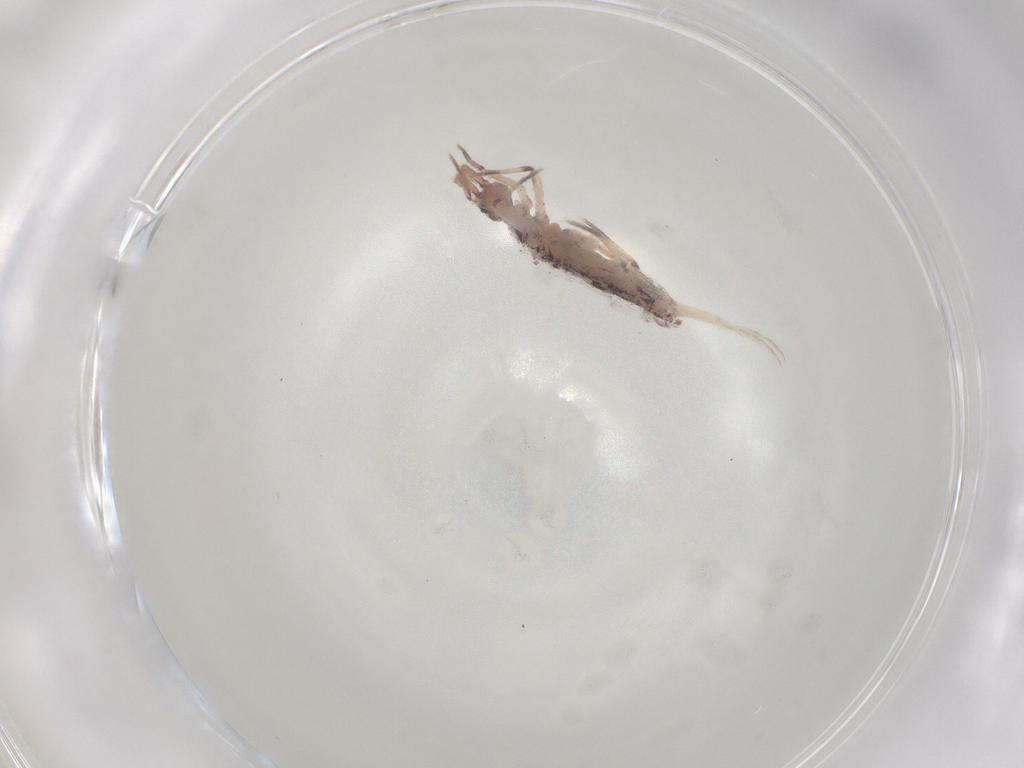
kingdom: Animalia
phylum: Arthropoda
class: Collembola
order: Entomobryomorpha
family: Entomobryidae
